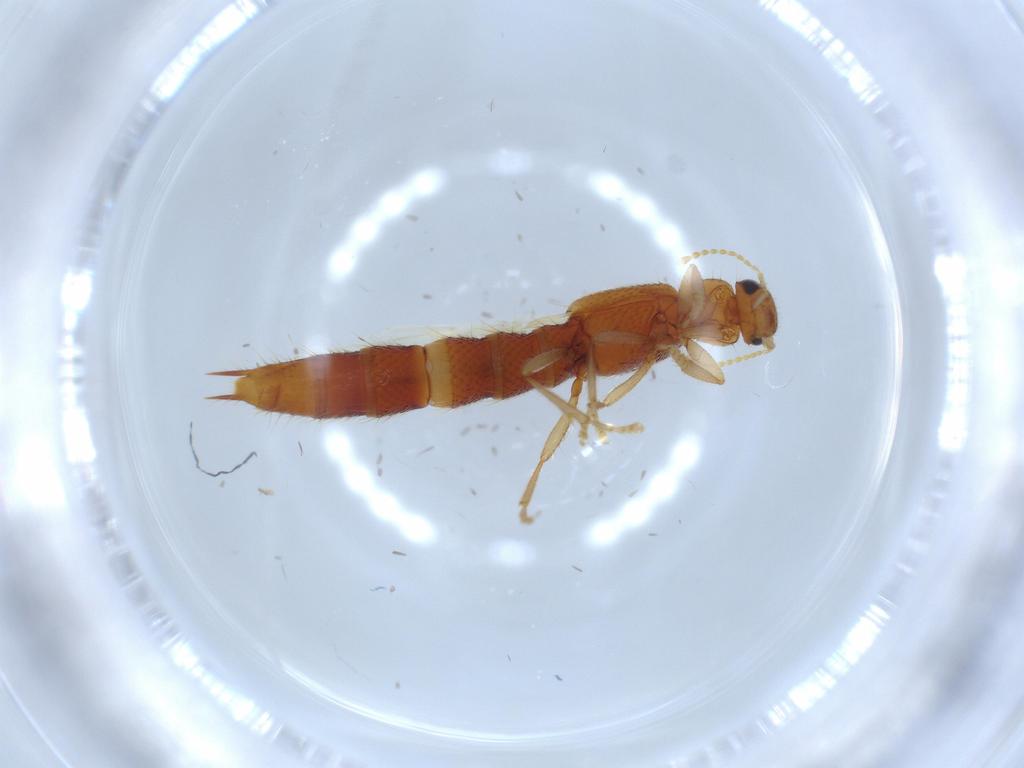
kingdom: Animalia
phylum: Arthropoda
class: Insecta
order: Coleoptera
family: Staphylinidae
